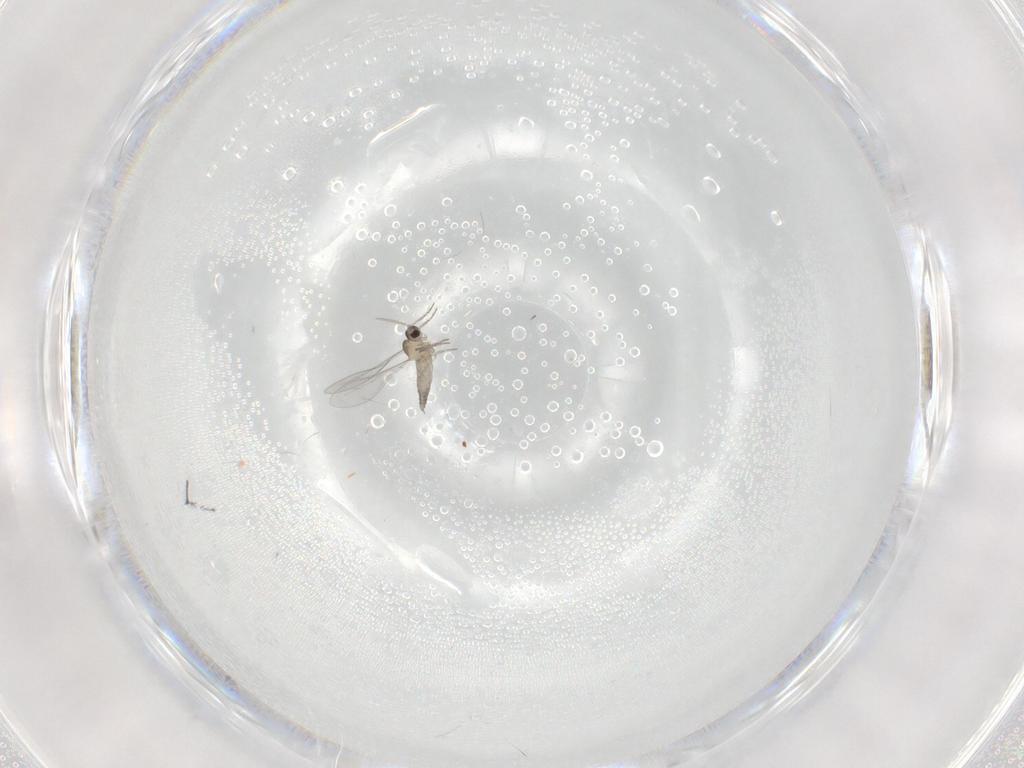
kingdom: Animalia
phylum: Arthropoda
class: Insecta
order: Diptera
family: Cecidomyiidae
